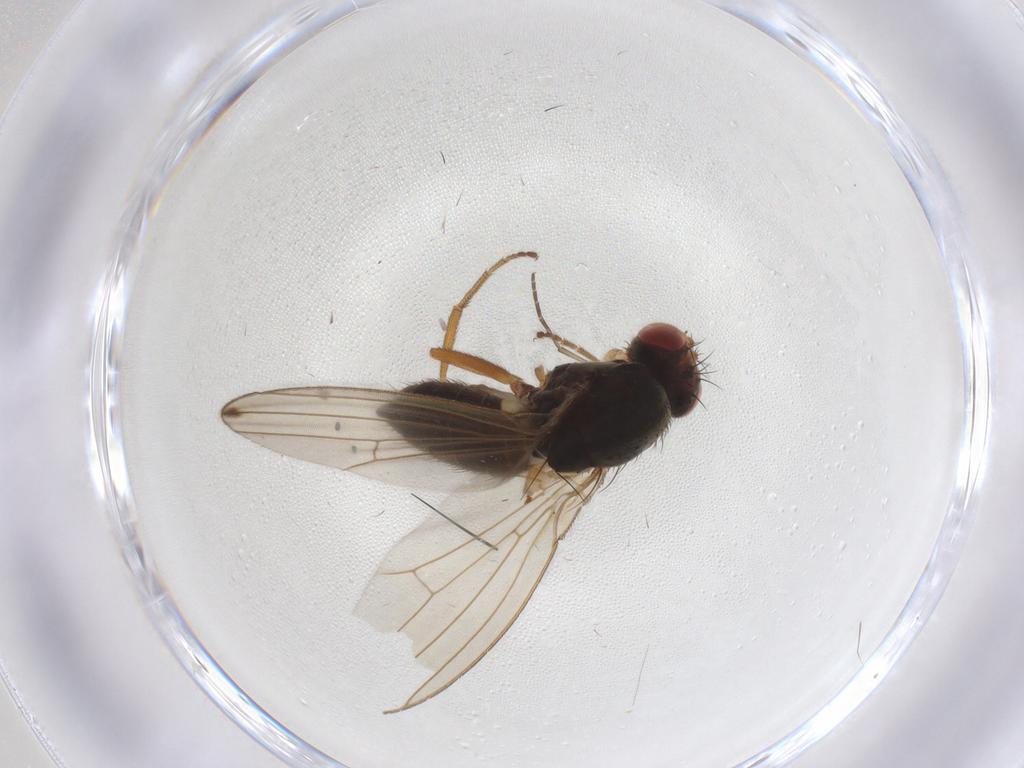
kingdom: Animalia
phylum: Arthropoda
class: Insecta
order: Diptera
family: Drosophilidae
